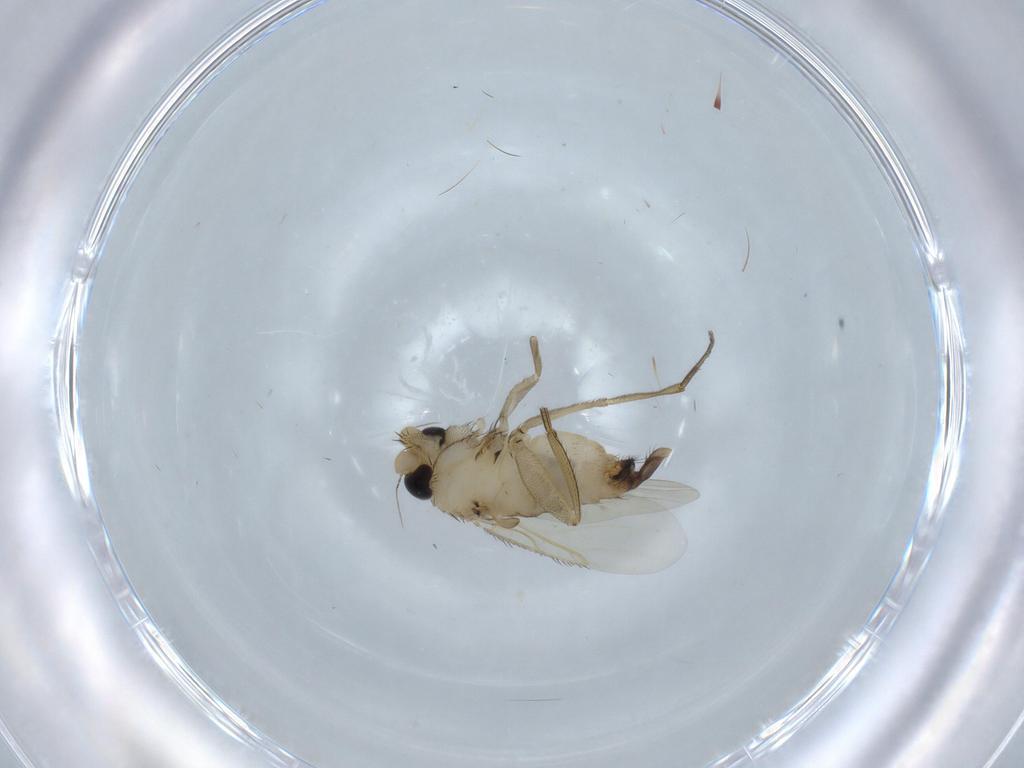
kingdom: Animalia
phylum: Arthropoda
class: Insecta
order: Diptera
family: Phoridae
